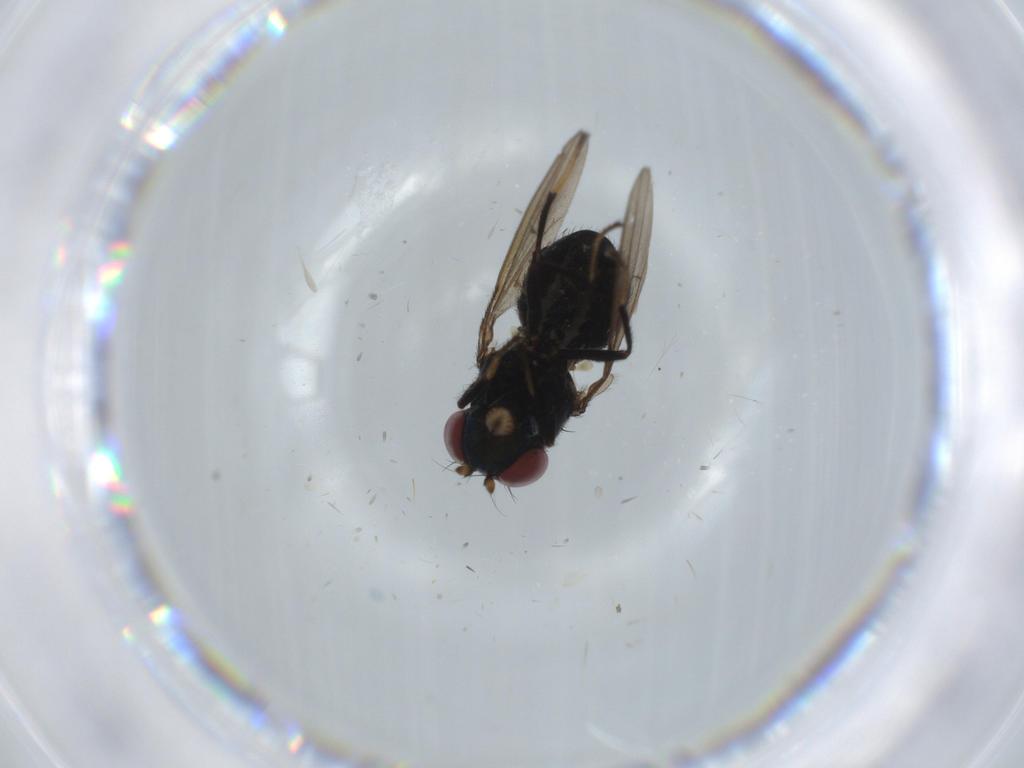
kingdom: Animalia
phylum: Arthropoda
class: Insecta
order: Diptera
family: Ephydridae
